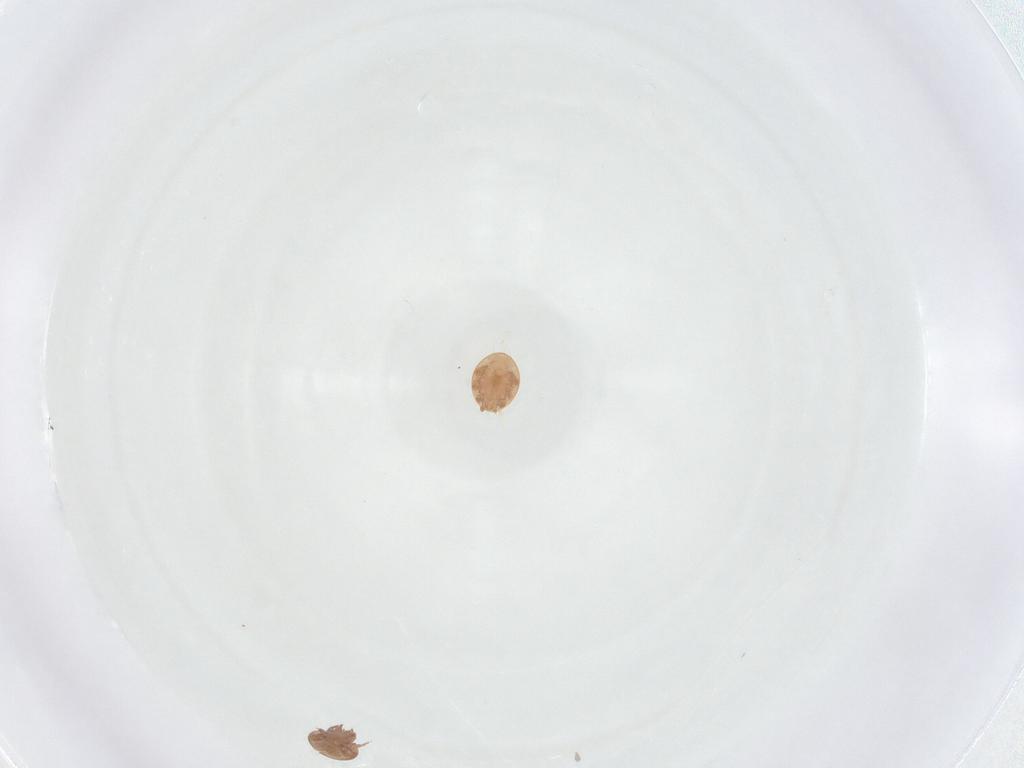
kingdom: Animalia
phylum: Arthropoda
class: Arachnida
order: Mesostigmata
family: Trematuridae
